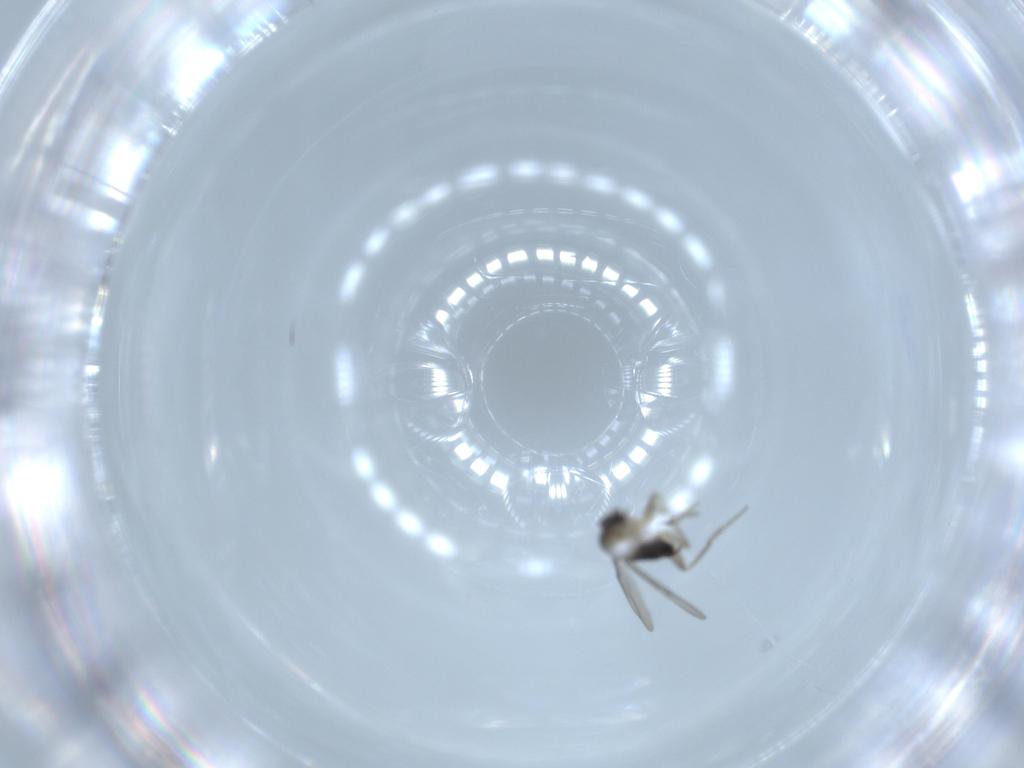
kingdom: Animalia
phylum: Arthropoda
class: Insecta
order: Diptera
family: Phoridae
